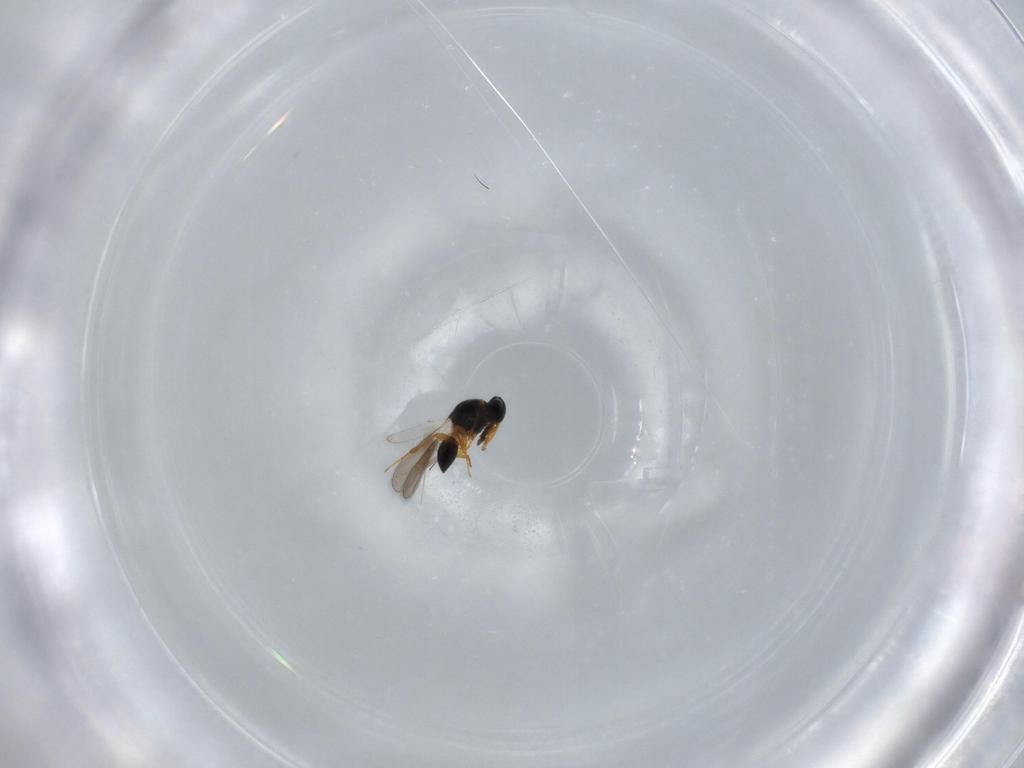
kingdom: Animalia
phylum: Arthropoda
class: Insecta
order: Hymenoptera
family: Platygastridae
